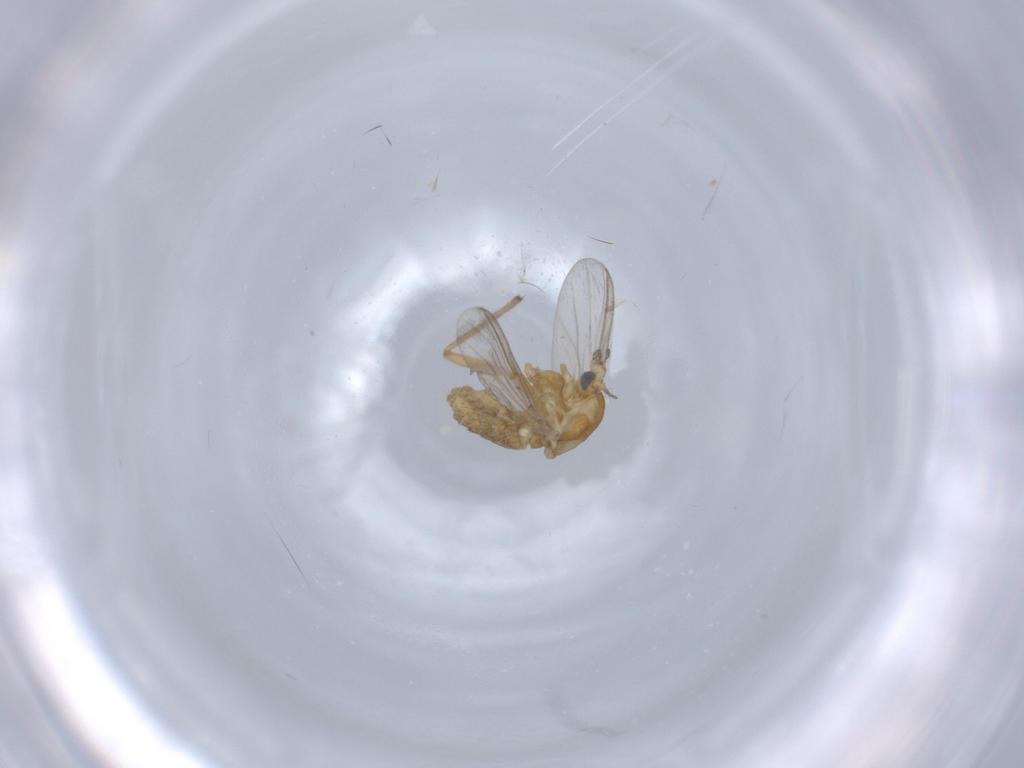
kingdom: Animalia
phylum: Arthropoda
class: Insecta
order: Diptera
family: Chironomidae
